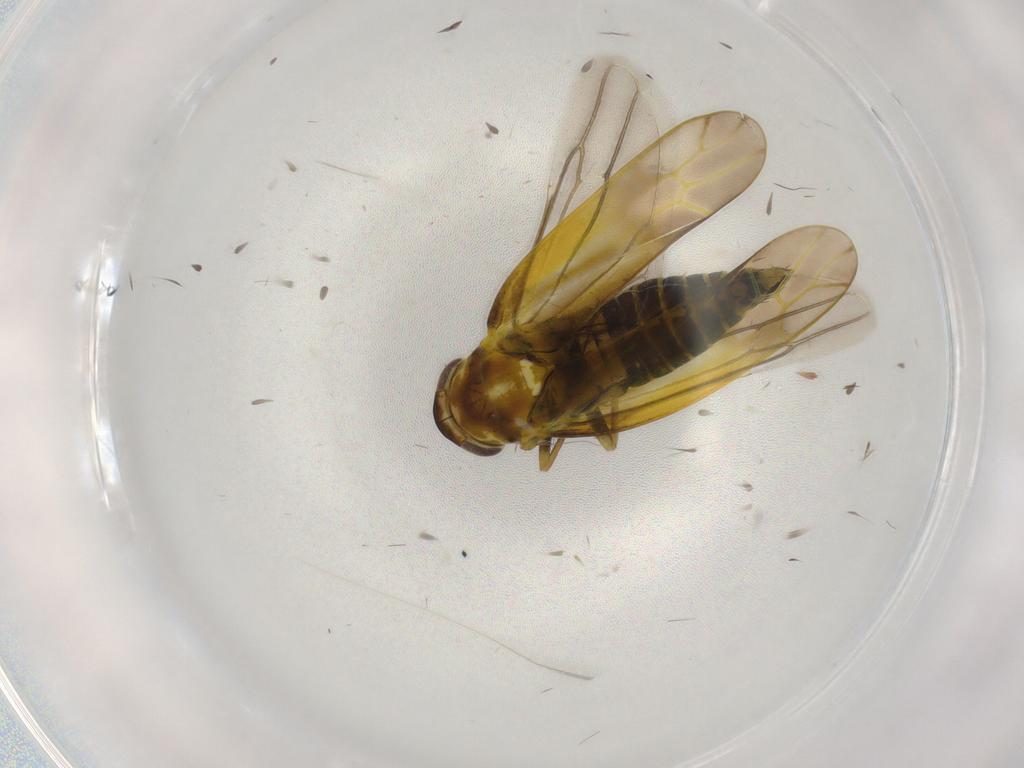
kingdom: Animalia
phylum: Arthropoda
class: Insecta
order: Hemiptera
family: Cicadellidae
